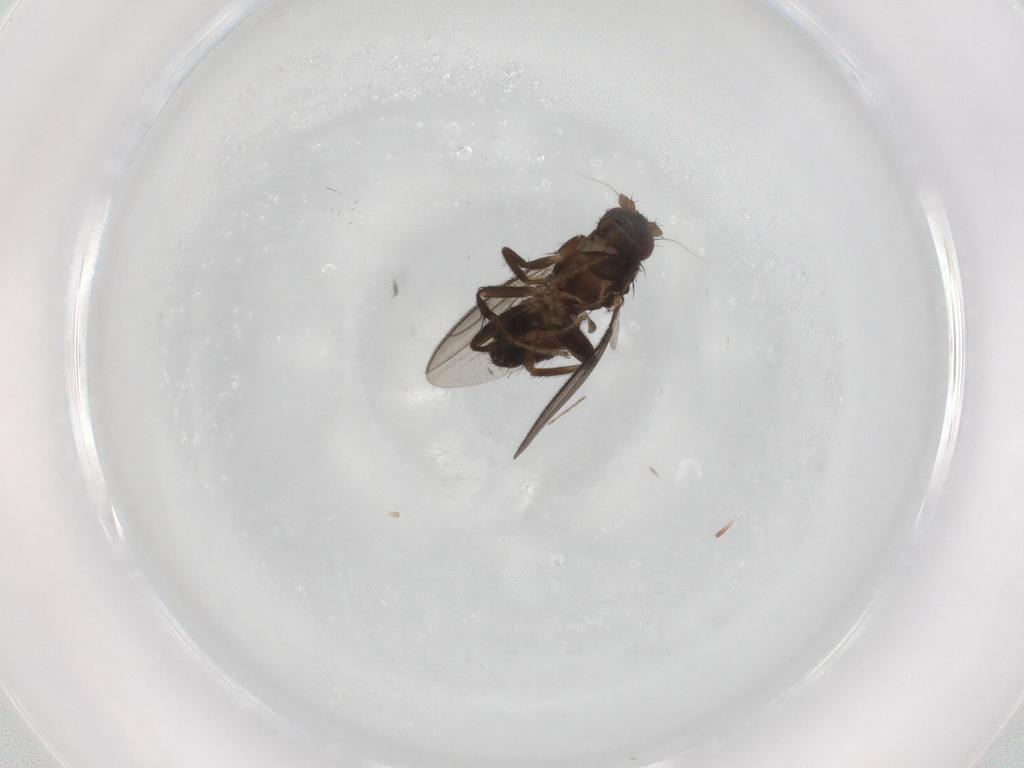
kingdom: Animalia
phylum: Arthropoda
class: Insecta
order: Diptera
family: Sphaeroceridae
